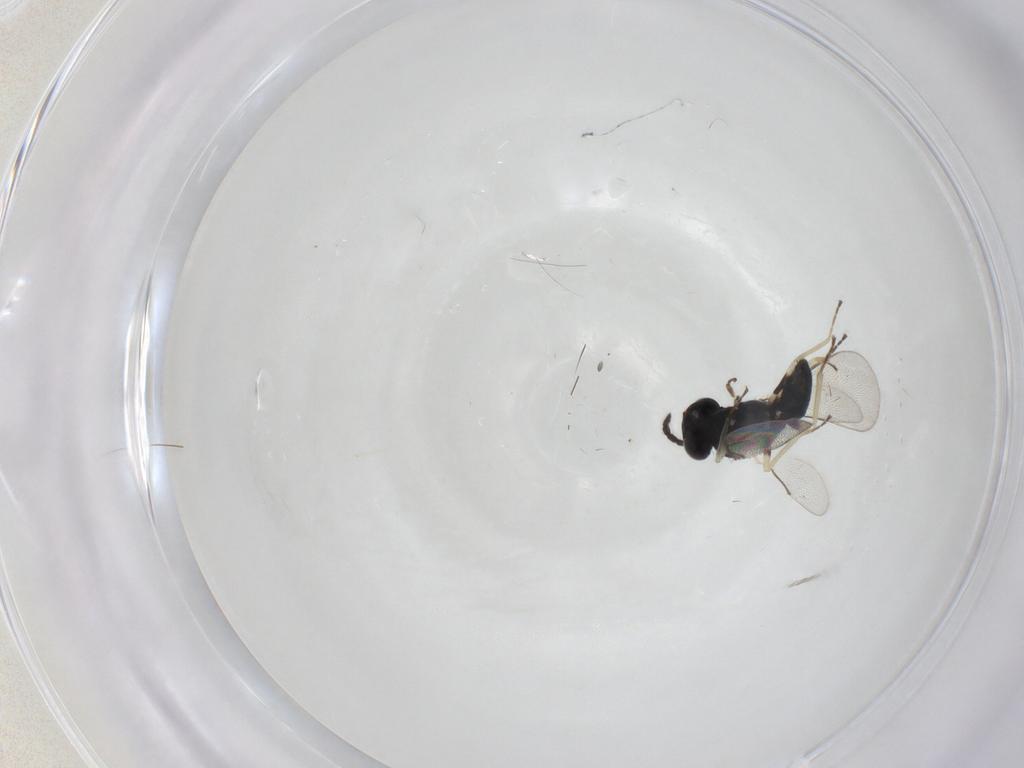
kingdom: Animalia
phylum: Arthropoda
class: Insecta
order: Hymenoptera
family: Eulophidae
